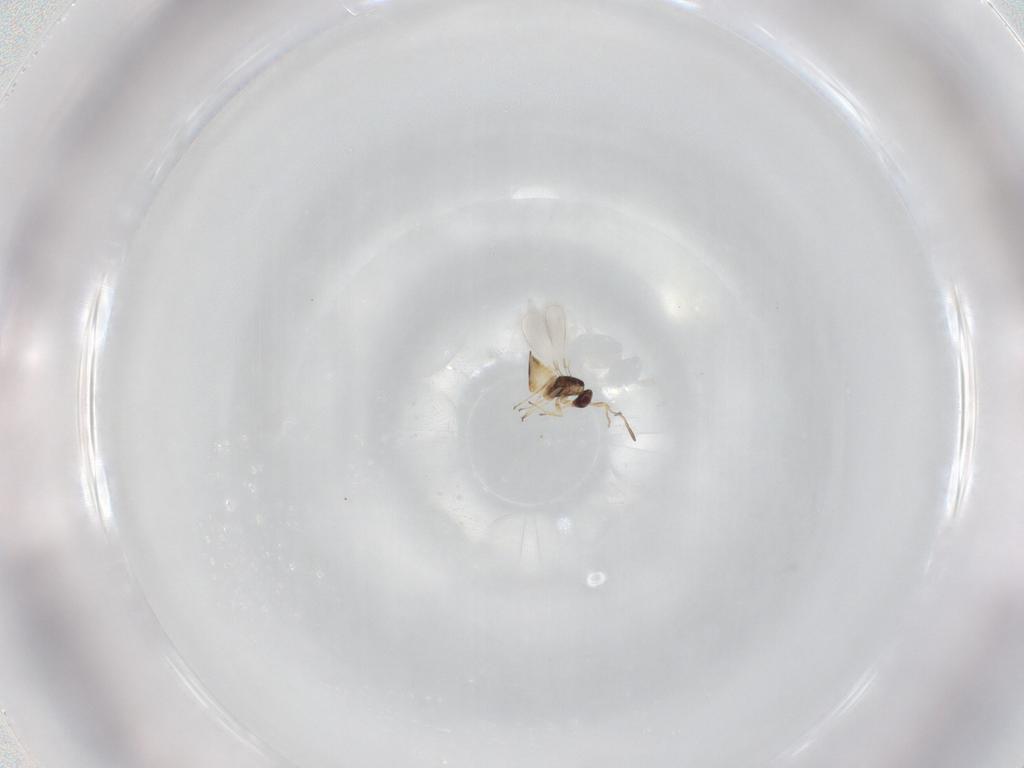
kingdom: Animalia
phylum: Arthropoda
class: Insecta
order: Hymenoptera
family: Mymaridae
